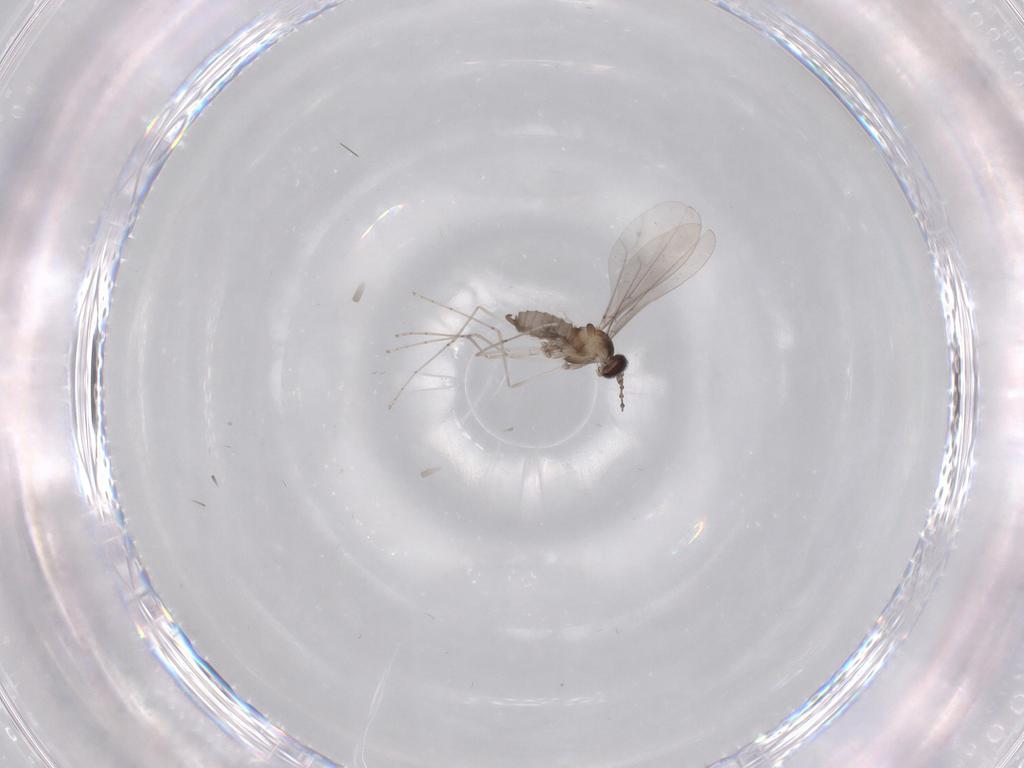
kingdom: Animalia
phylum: Arthropoda
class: Insecta
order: Diptera
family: Cecidomyiidae
